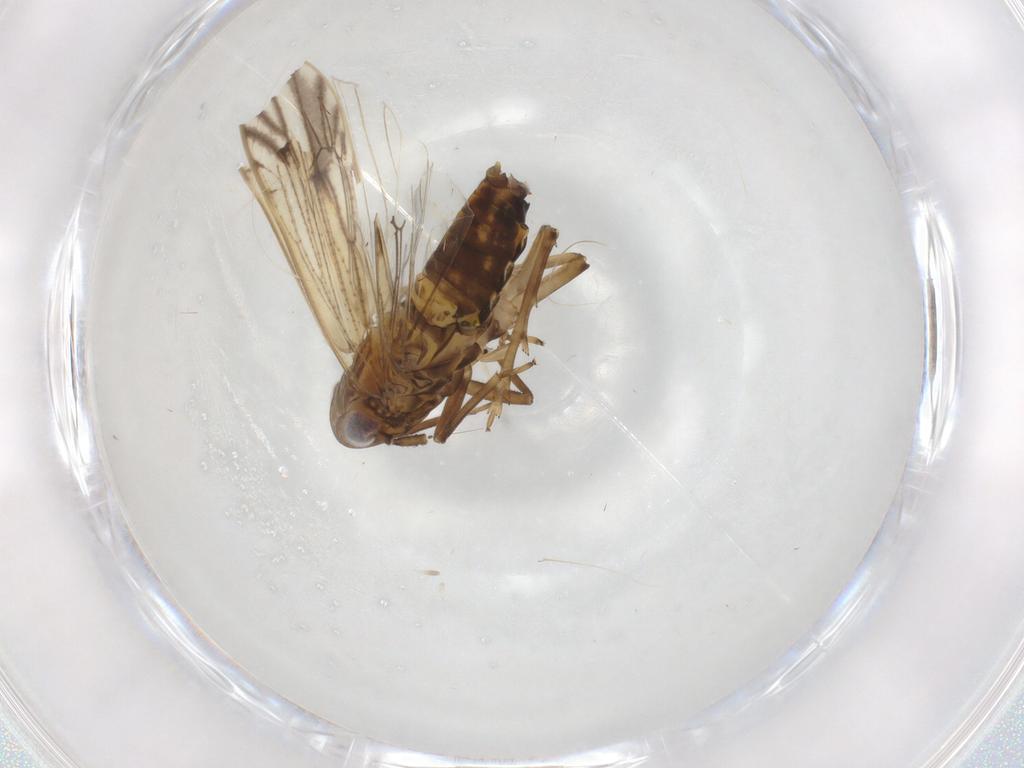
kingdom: Animalia
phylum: Arthropoda
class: Insecta
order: Hemiptera
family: Delphacidae
